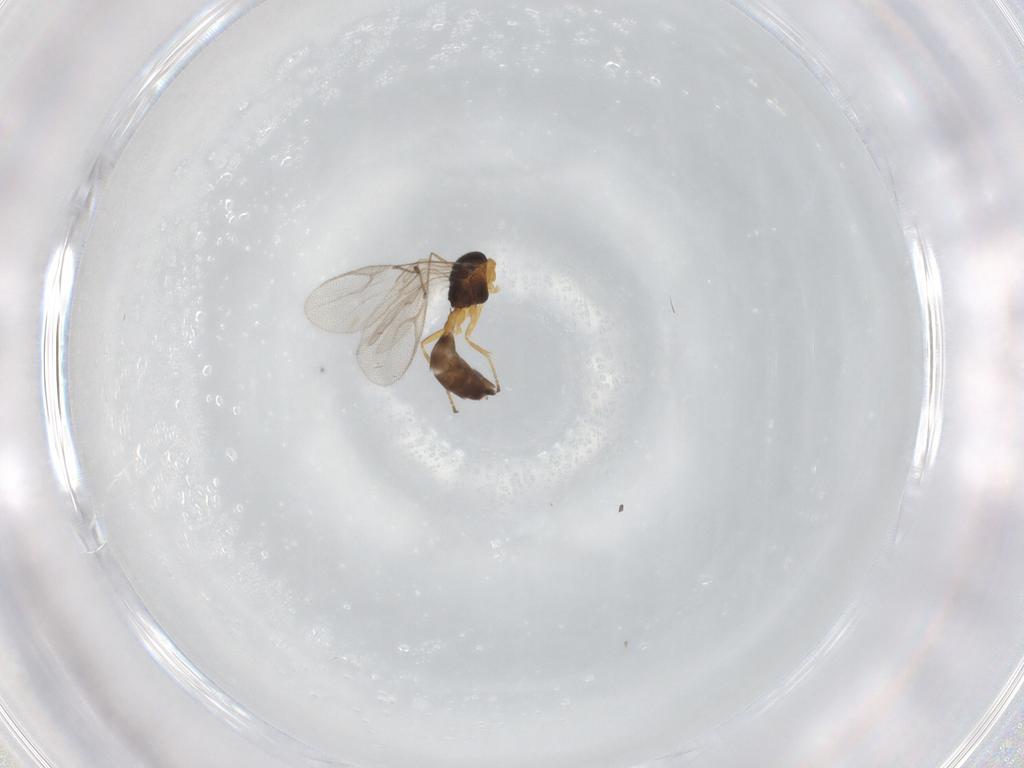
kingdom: Animalia
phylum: Arthropoda
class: Insecta
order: Hymenoptera
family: Braconidae
